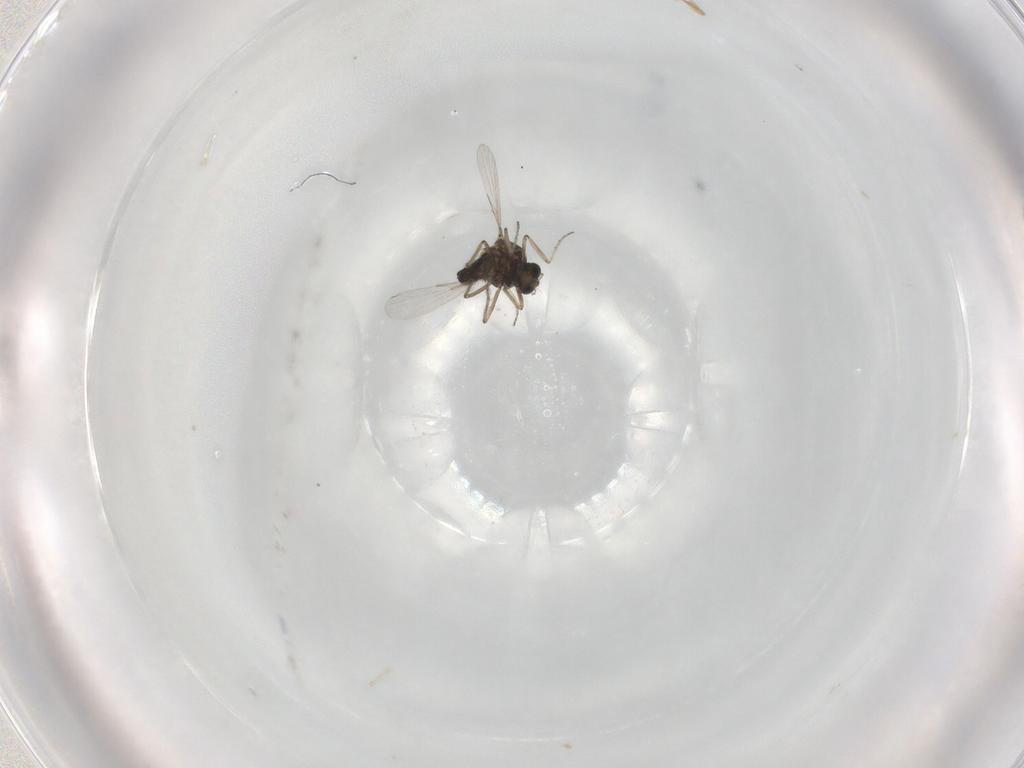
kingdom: Animalia
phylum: Arthropoda
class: Insecta
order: Diptera
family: Ceratopogonidae
